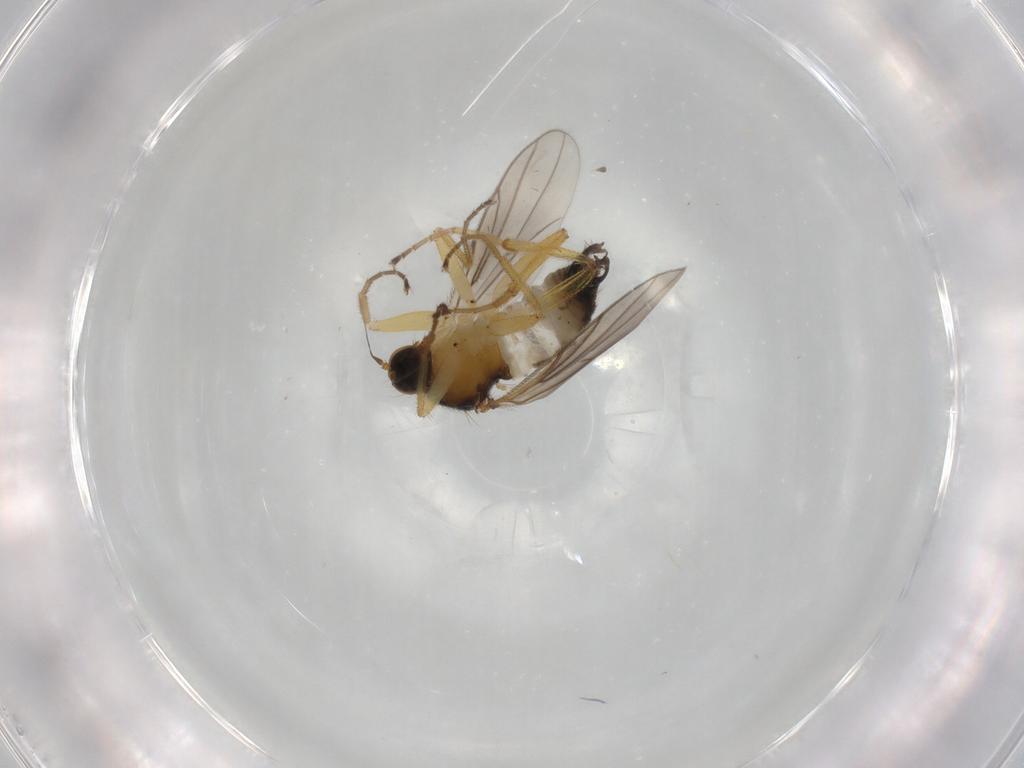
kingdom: Animalia
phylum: Arthropoda
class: Insecta
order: Diptera
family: Hybotidae
